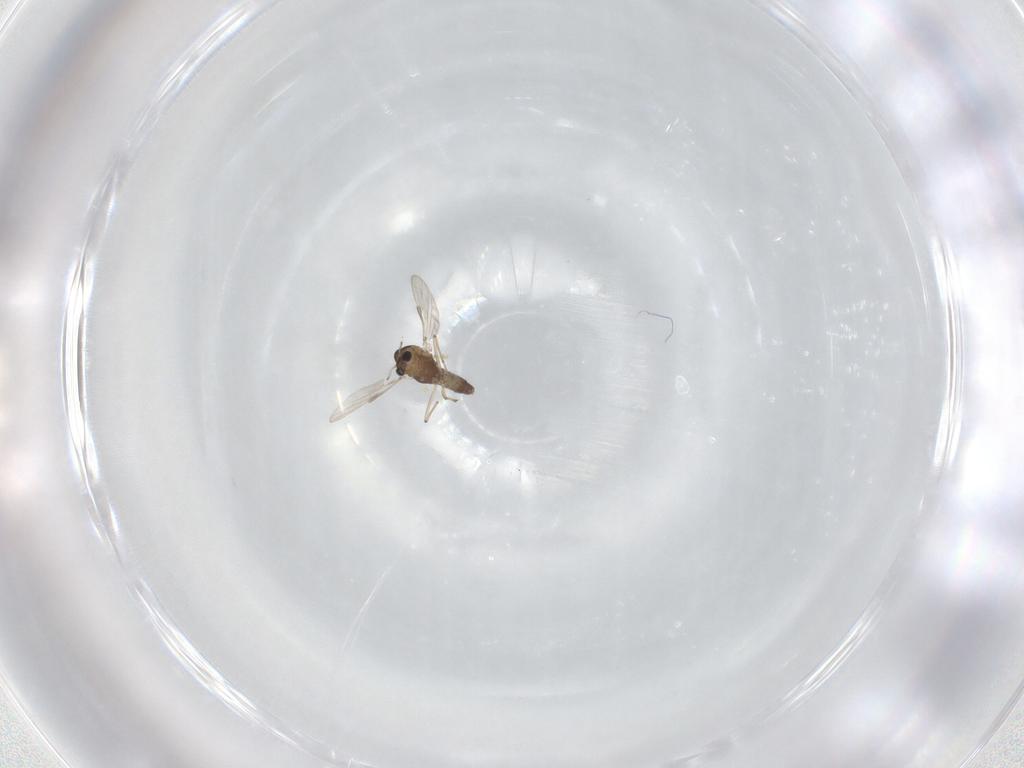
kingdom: Animalia
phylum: Arthropoda
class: Insecta
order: Diptera
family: Chironomidae
